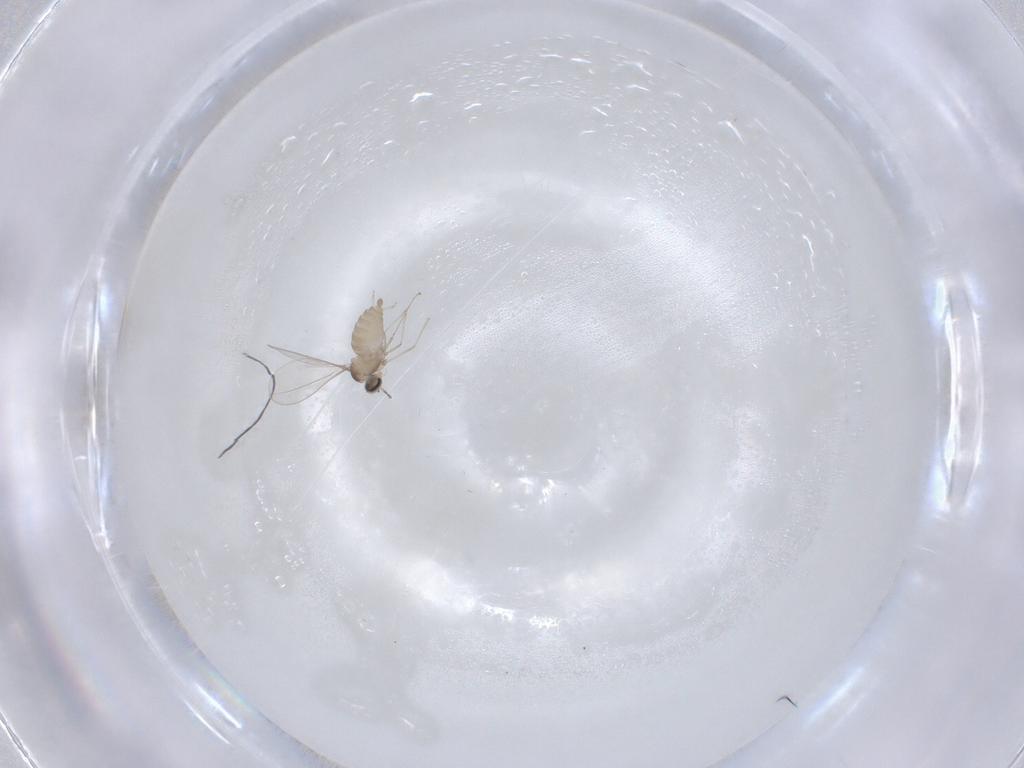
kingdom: Animalia
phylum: Arthropoda
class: Insecta
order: Diptera
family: Cecidomyiidae
